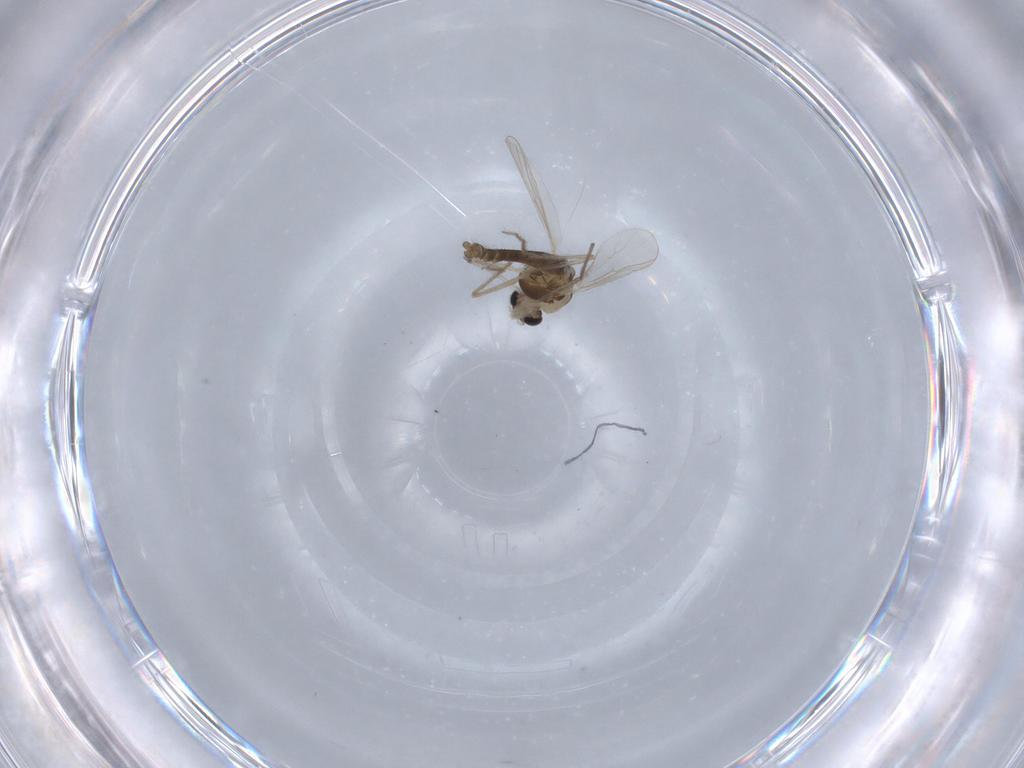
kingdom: Animalia
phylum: Arthropoda
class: Insecta
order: Diptera
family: Chironomidae
